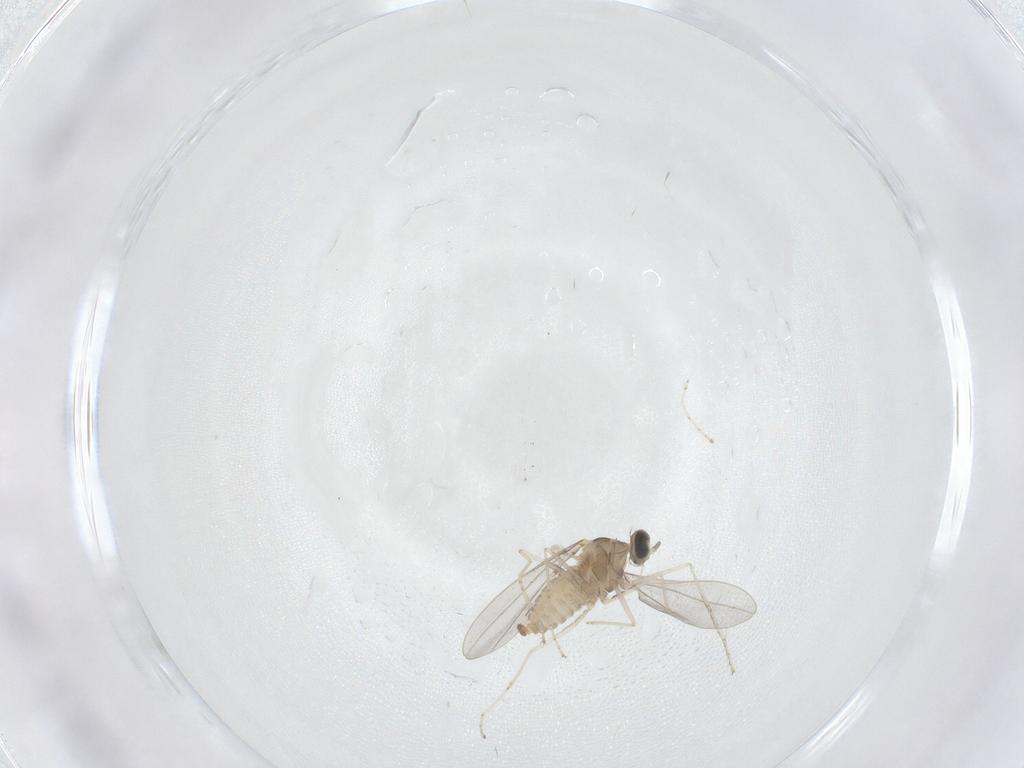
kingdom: Animalia
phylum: Arthropoda
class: Insecta
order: Diptera
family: Cecidomyiidae
